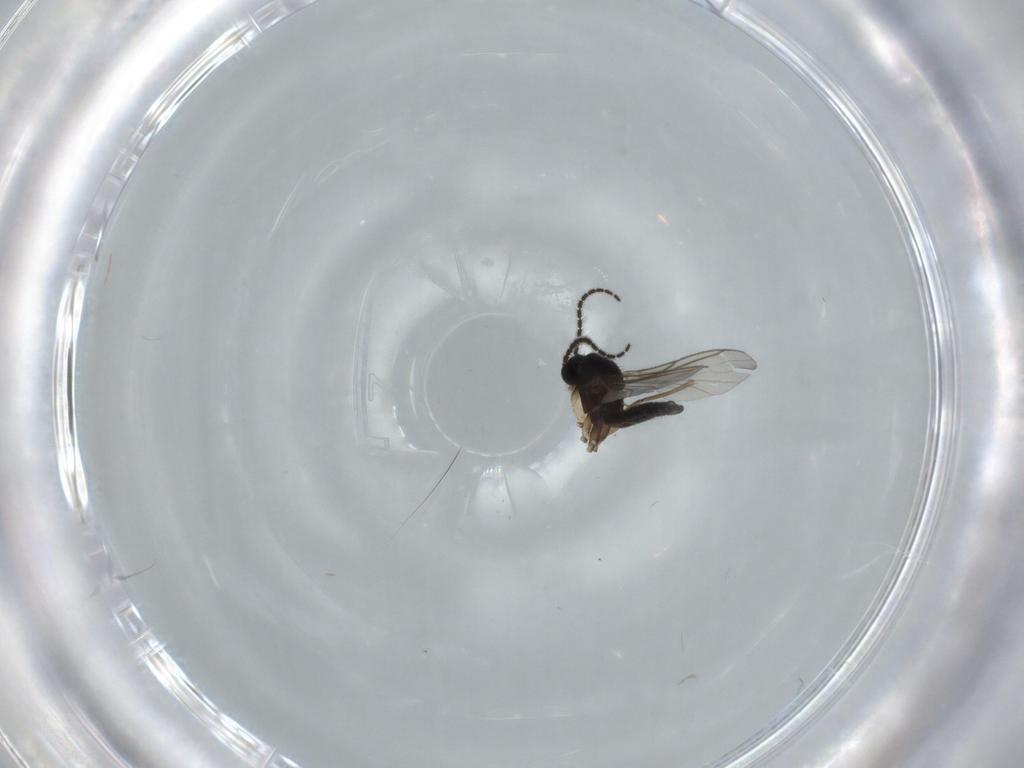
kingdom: Animalia
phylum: Arthropoda
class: Insecta
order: Diptera
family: Sciaridae
